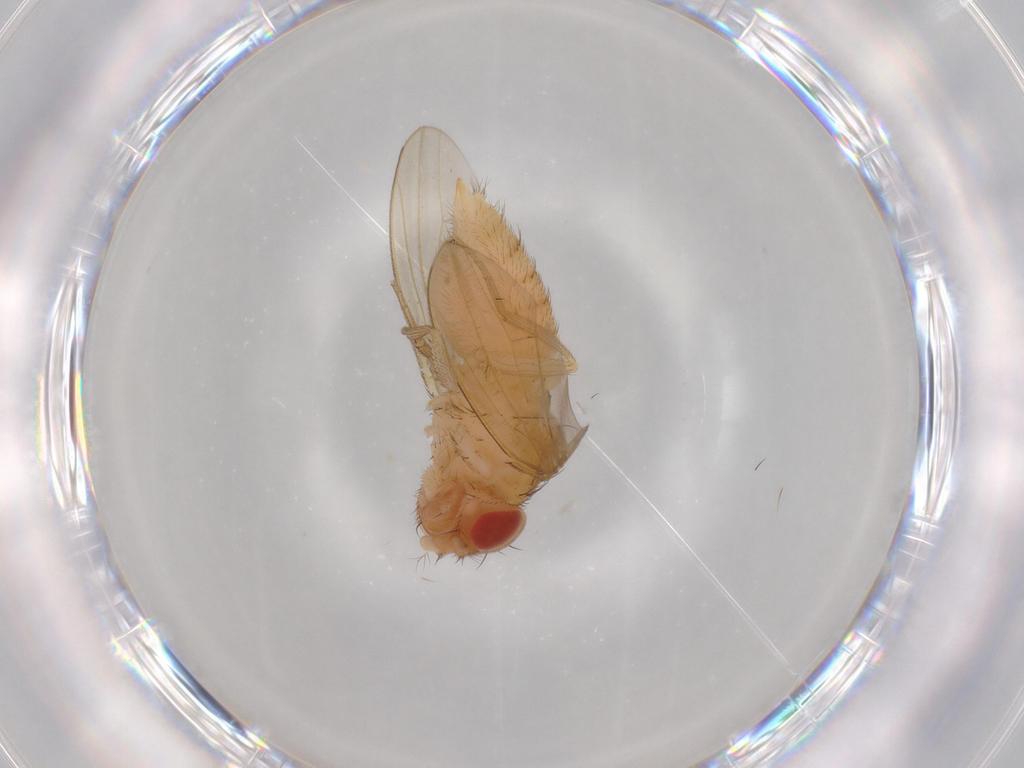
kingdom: Animalia
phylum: Arthropoda
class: Insecta
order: Diptera
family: Drosophilidae
